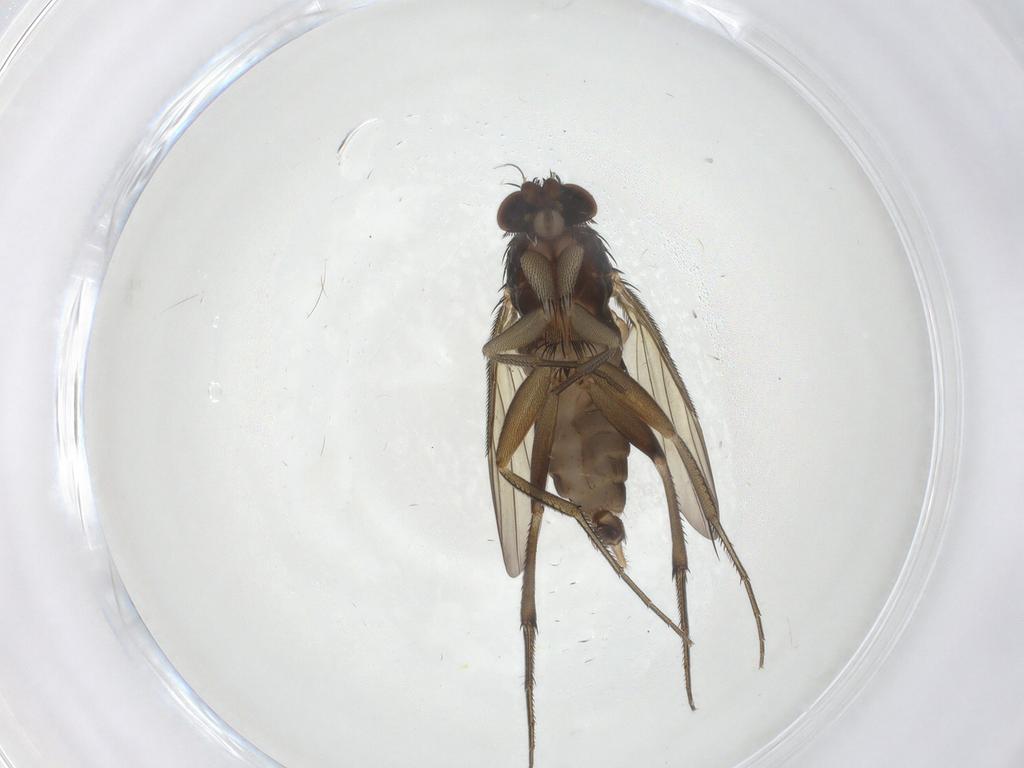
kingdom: Animalia
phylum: Arthropoda
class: Insecta
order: Diptera
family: Phoridae
